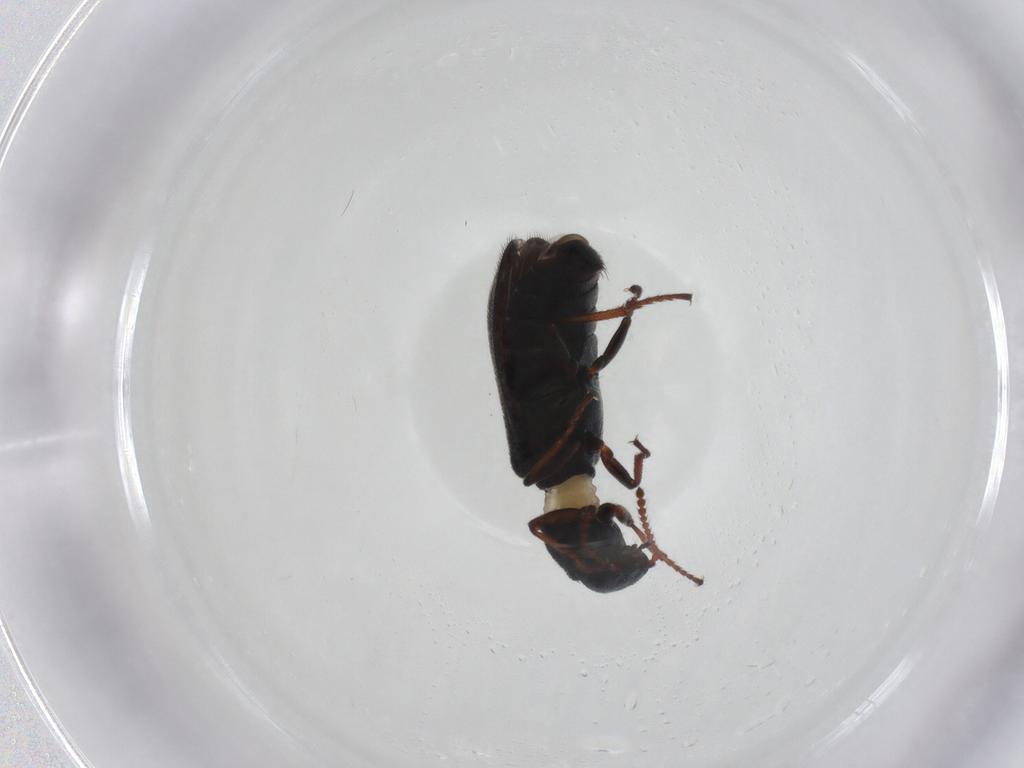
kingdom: Animalia
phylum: Arthropoda
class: Insecta
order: Coleoptera
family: Melyridae
